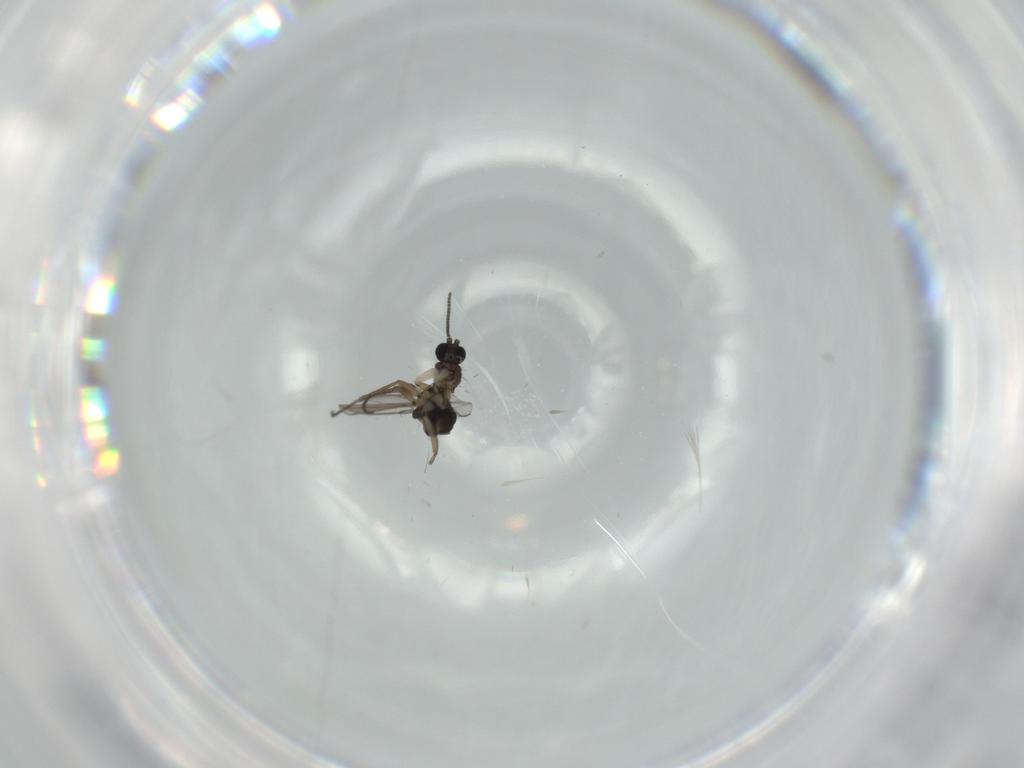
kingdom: Animalia
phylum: Arthropoda
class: Insecta
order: Diptera
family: Sciaridae
